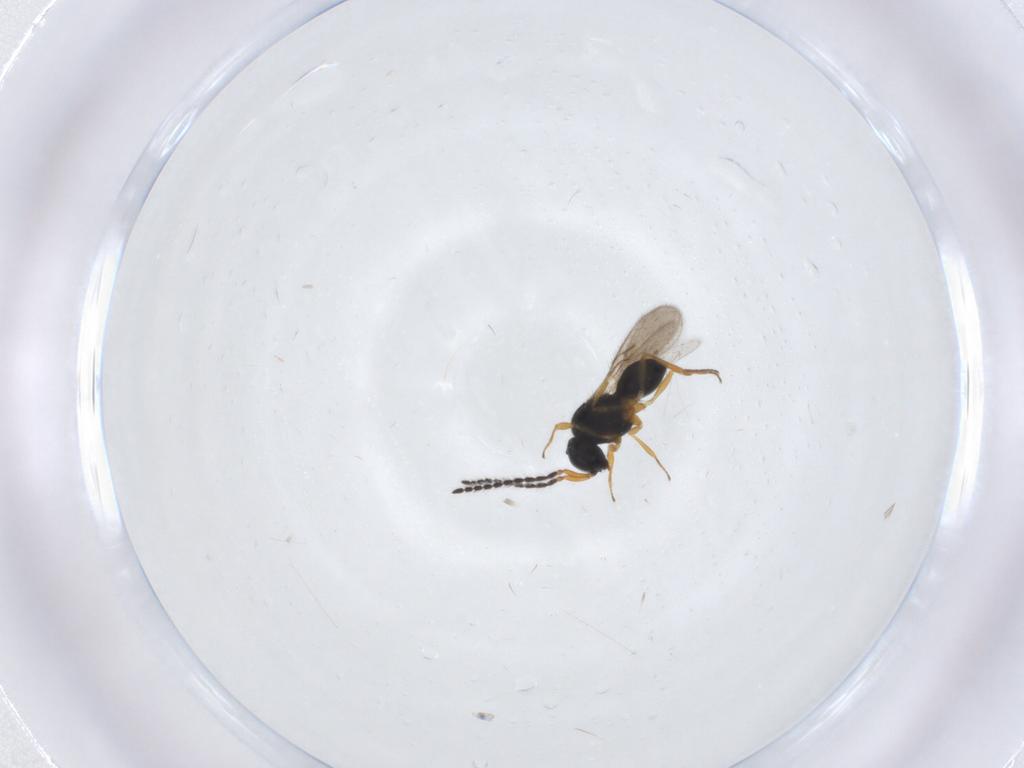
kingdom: Animalia
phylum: Arthropoda
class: Insecta
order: Hymenoptera
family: Scelionidae
